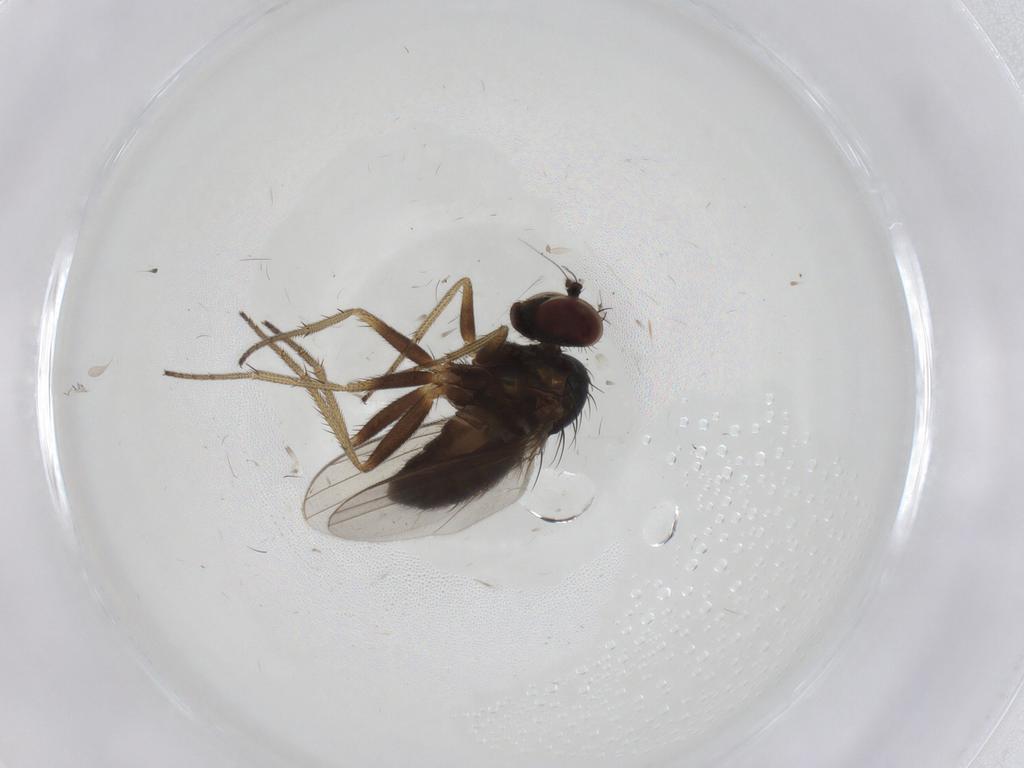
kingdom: Animalia
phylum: Arthropoda
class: Insecta
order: Diptera
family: Dolichopodidae
